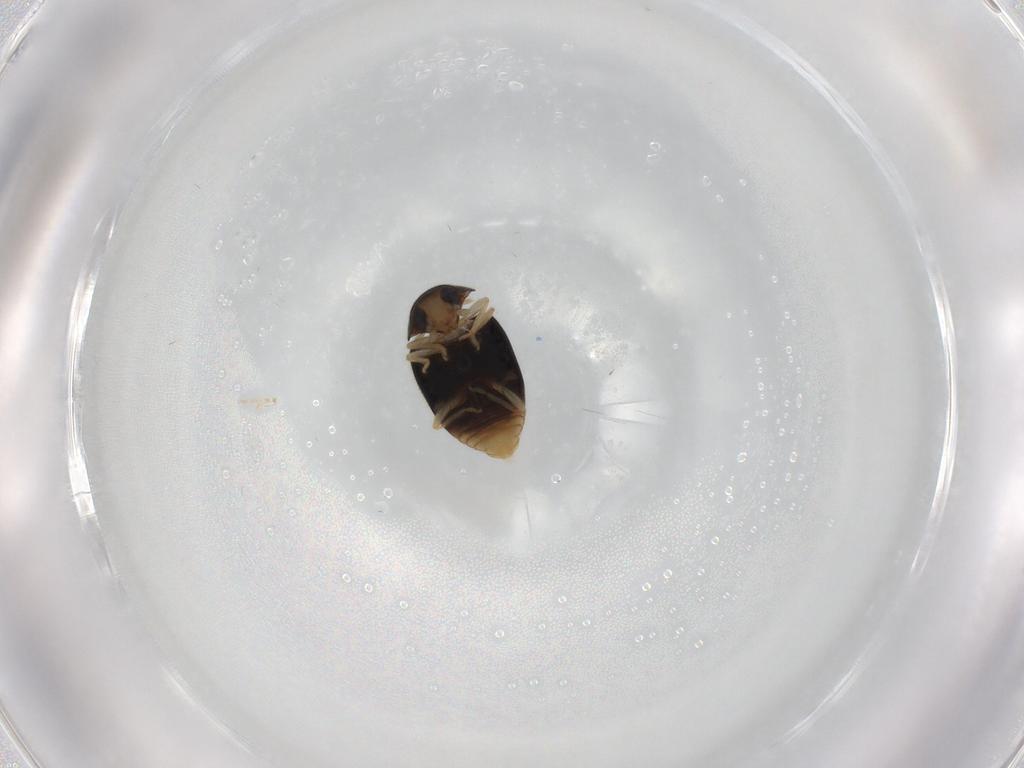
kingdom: Animalia
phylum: Arthropoda
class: Insecta
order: Coleoptera
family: Coccinellidae
